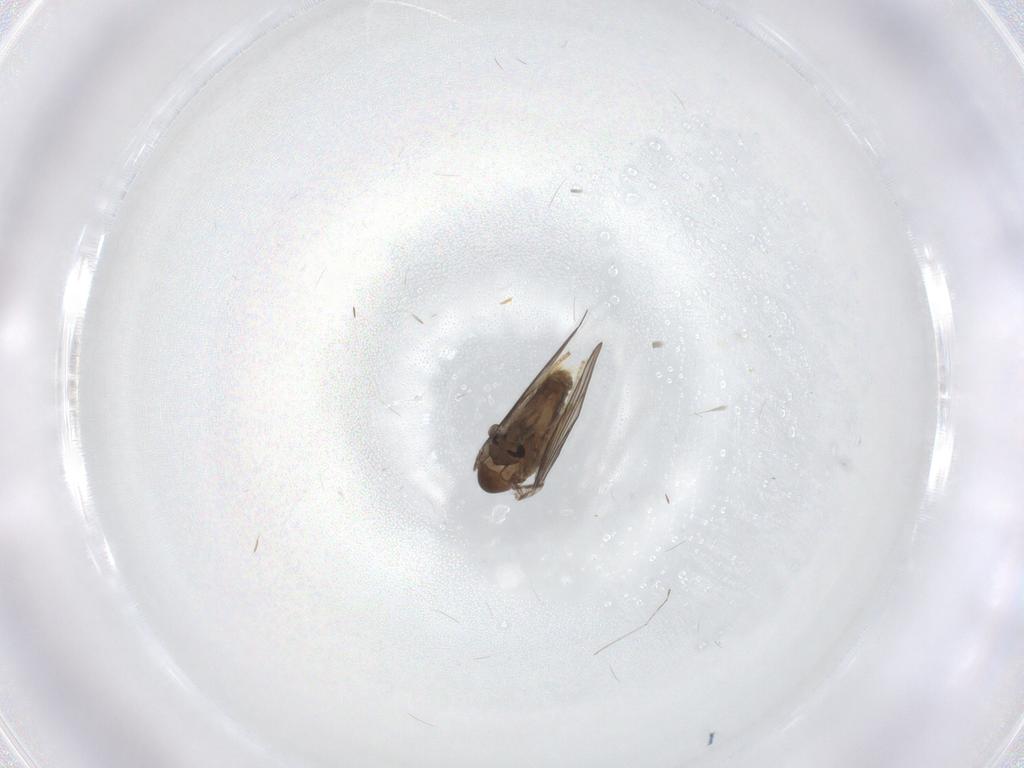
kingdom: Animalia
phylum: Arthropoda
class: Insecta
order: Diptera
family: Psychodidae
